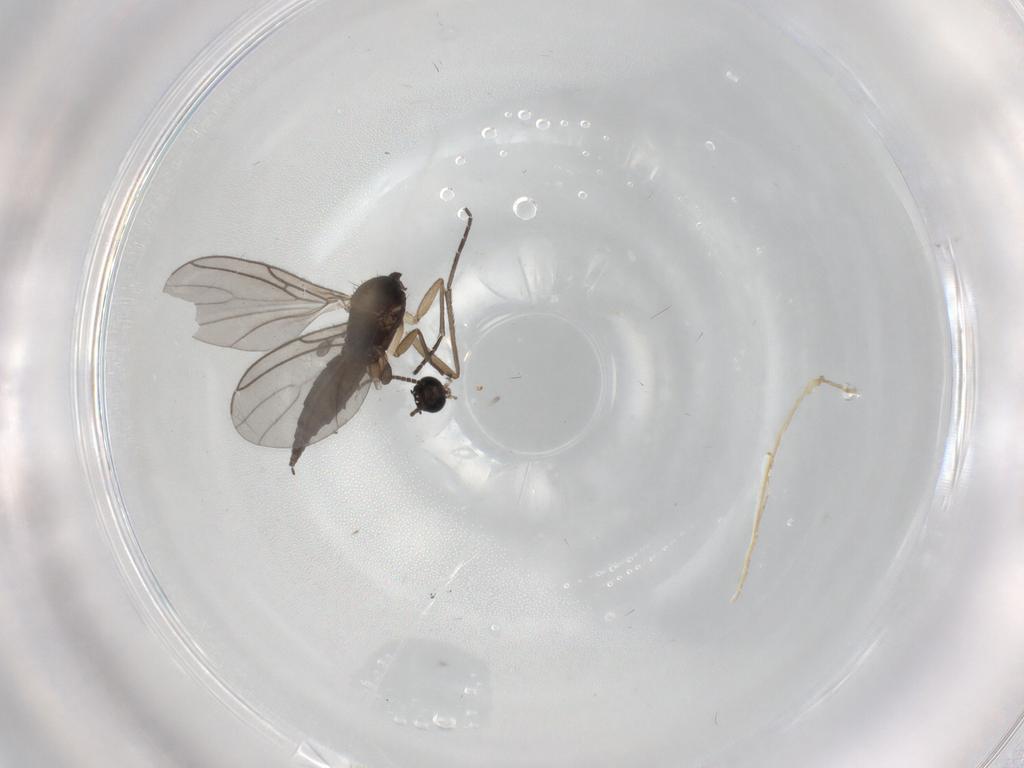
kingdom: Animalia
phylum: Arthropoda
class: Insecta
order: Diptera
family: Sciaridae
